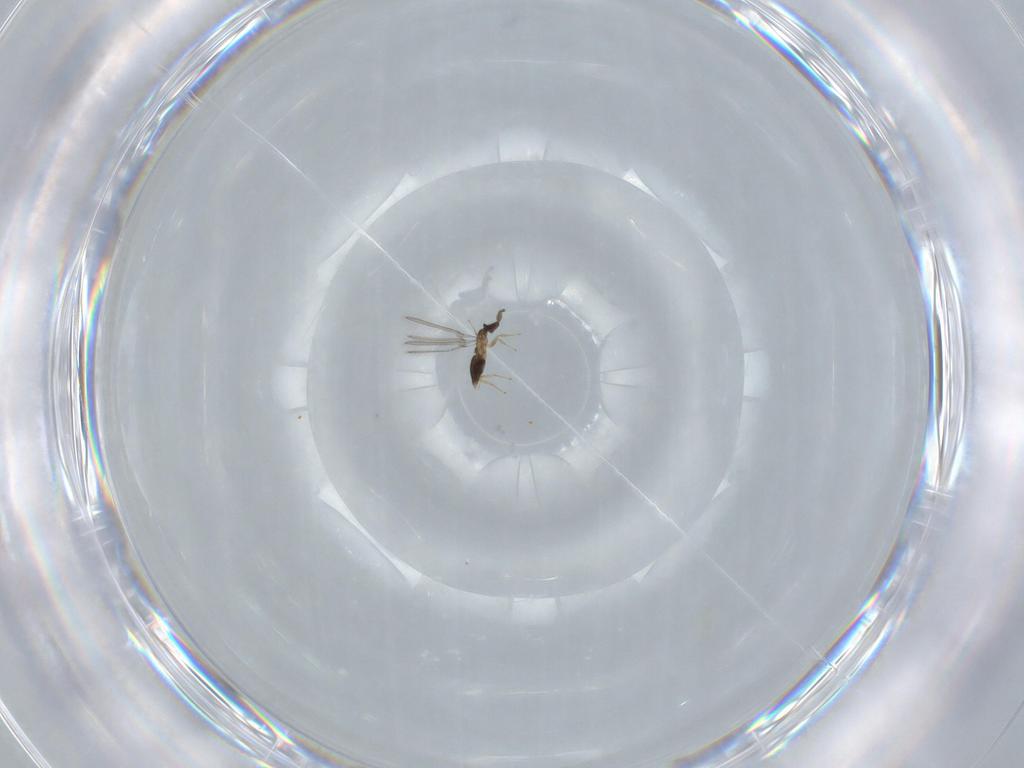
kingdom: Animalia
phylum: Arthropoda
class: Insecta
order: Hymenoptera
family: Mymaridae
